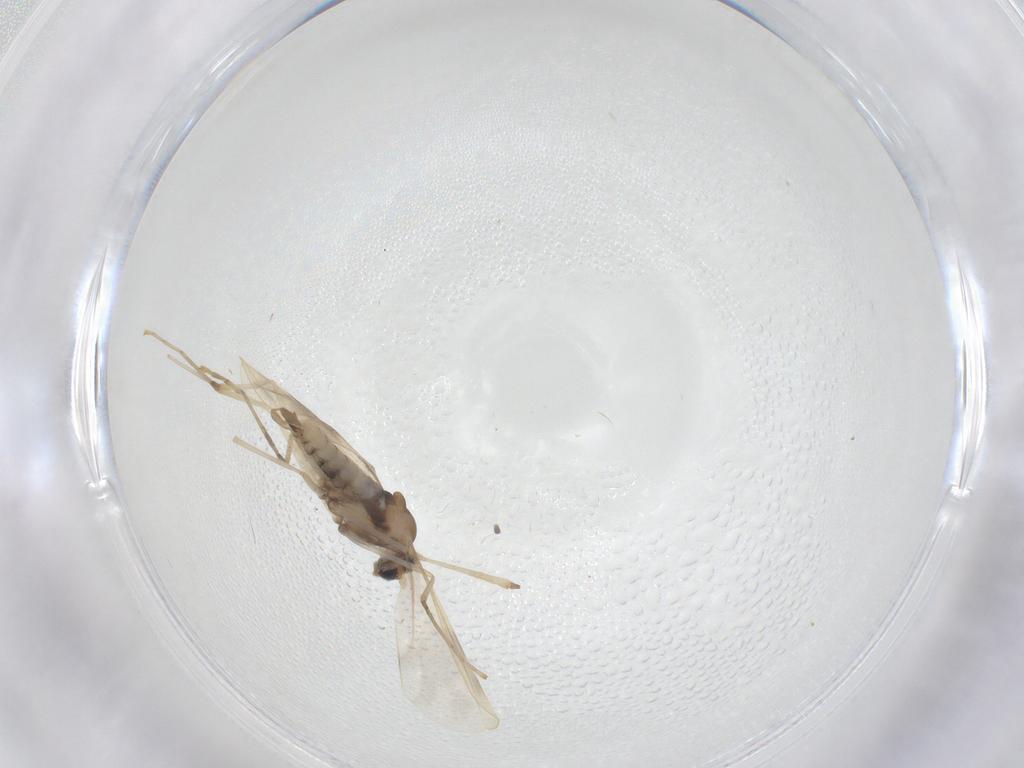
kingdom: Animalia
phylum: Arthropoda
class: Insecta
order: Diptera
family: Cecidomyiidae
